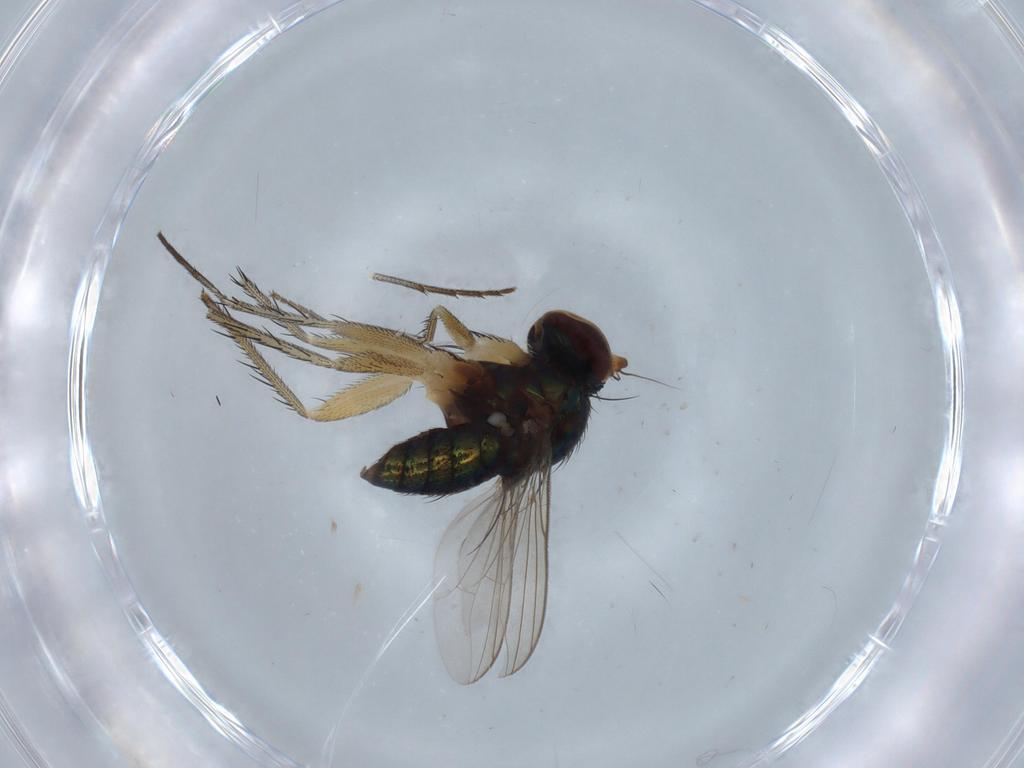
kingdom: Animalia
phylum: Arthropoda
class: Insecta
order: Diptera
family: Dolichopodidae
